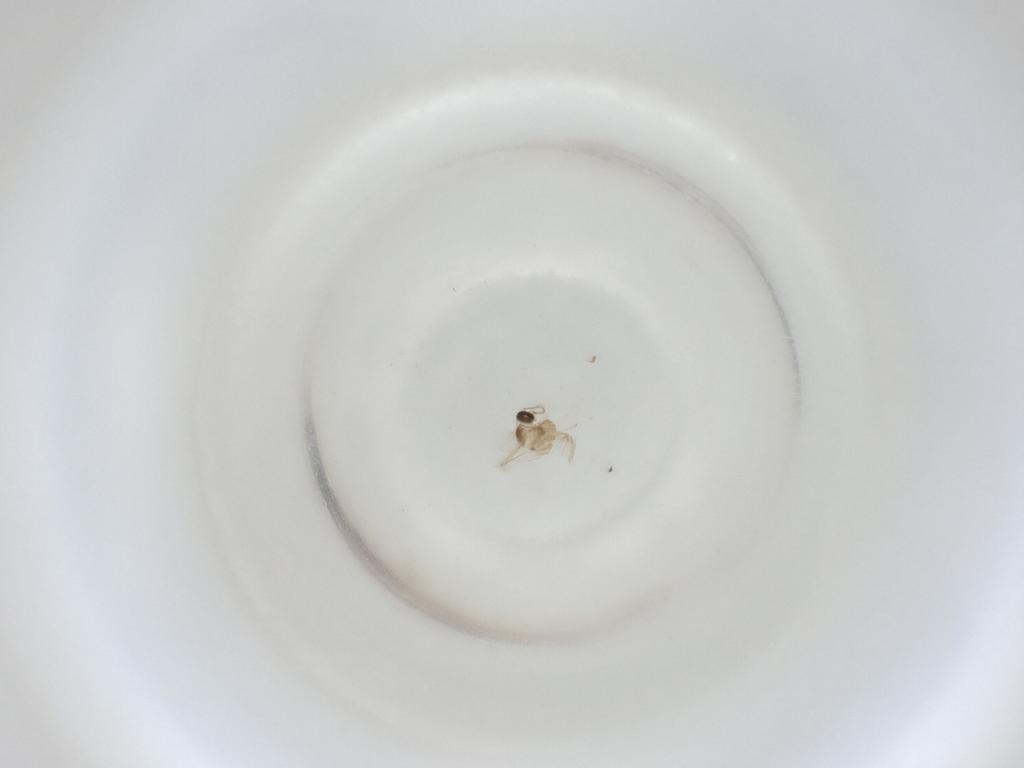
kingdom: Animalia
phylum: Arthropoda
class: Insecta
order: Diptera
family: Cecidomyiidae
